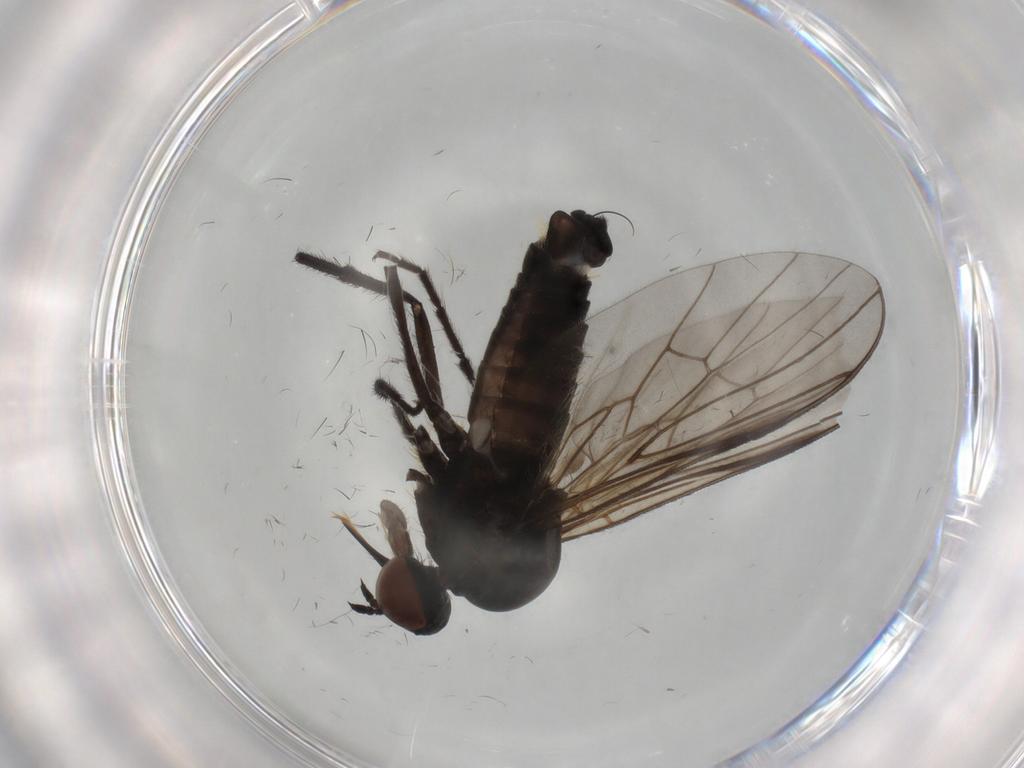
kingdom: Animalia
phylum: Arthropoda
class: Insecta
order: Diptera
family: Empididae
